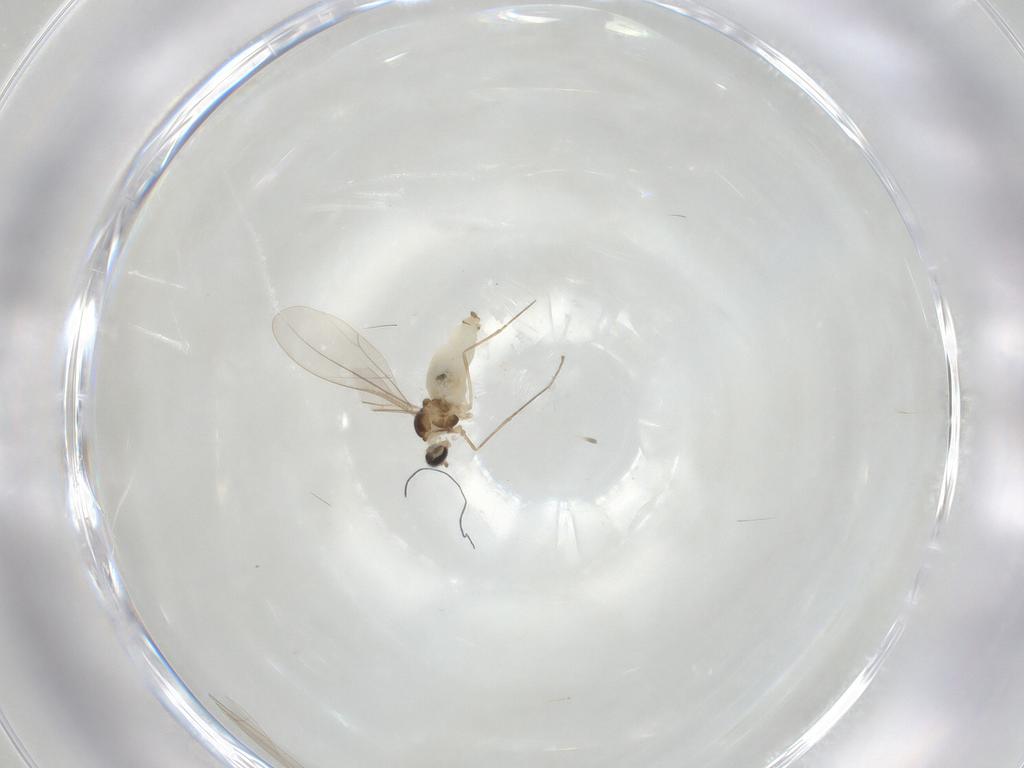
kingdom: Animalia
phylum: Arthropoda
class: Insecta
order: Diptera
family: Cecidomyiidae
